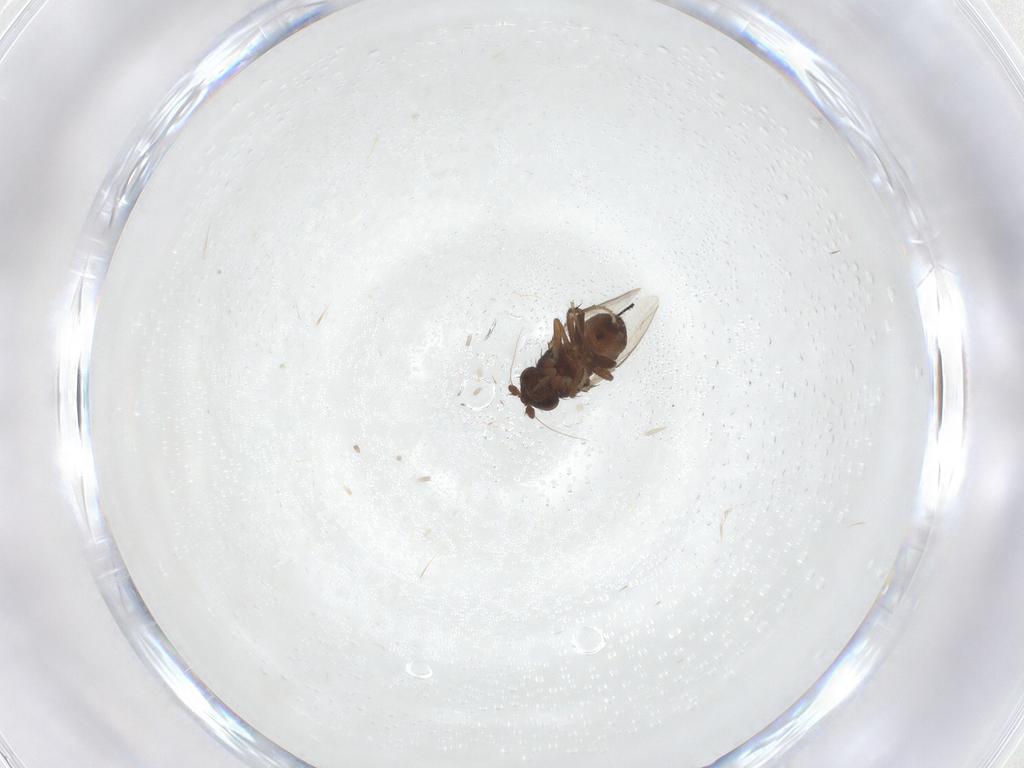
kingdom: Animalia
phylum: Arthropoda
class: Insecta
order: Diptera
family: Sphaeroceridae
